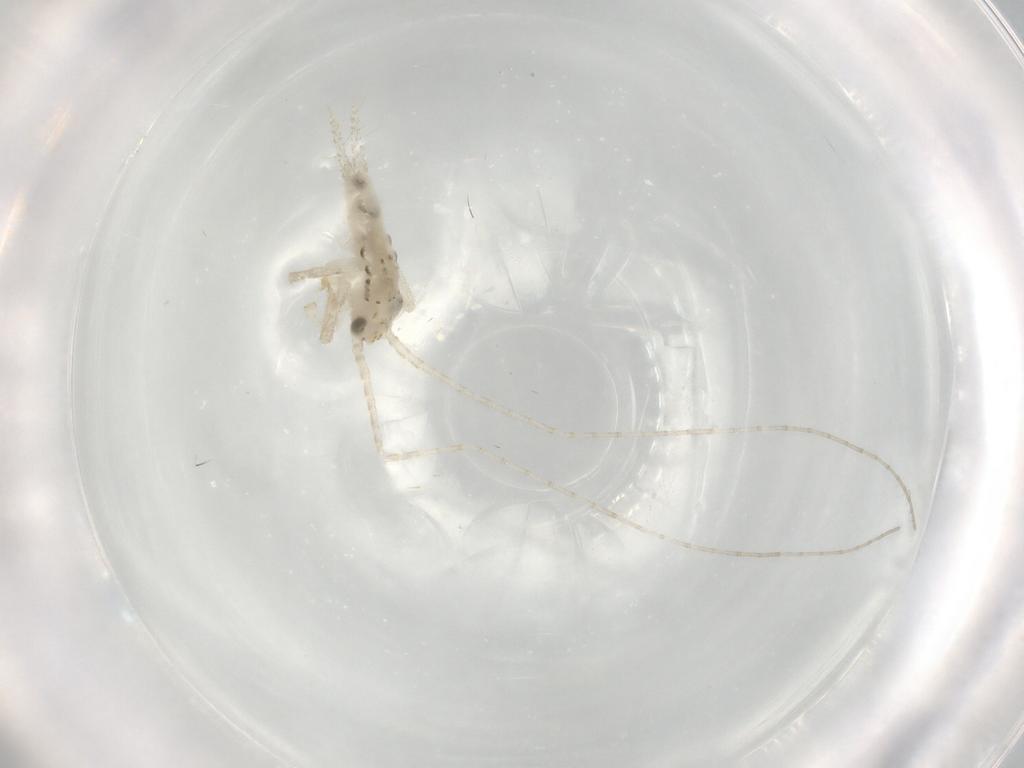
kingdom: Animalia
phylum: Arthropoda
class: Insecta
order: Orthoptera
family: Trigonidiidae
